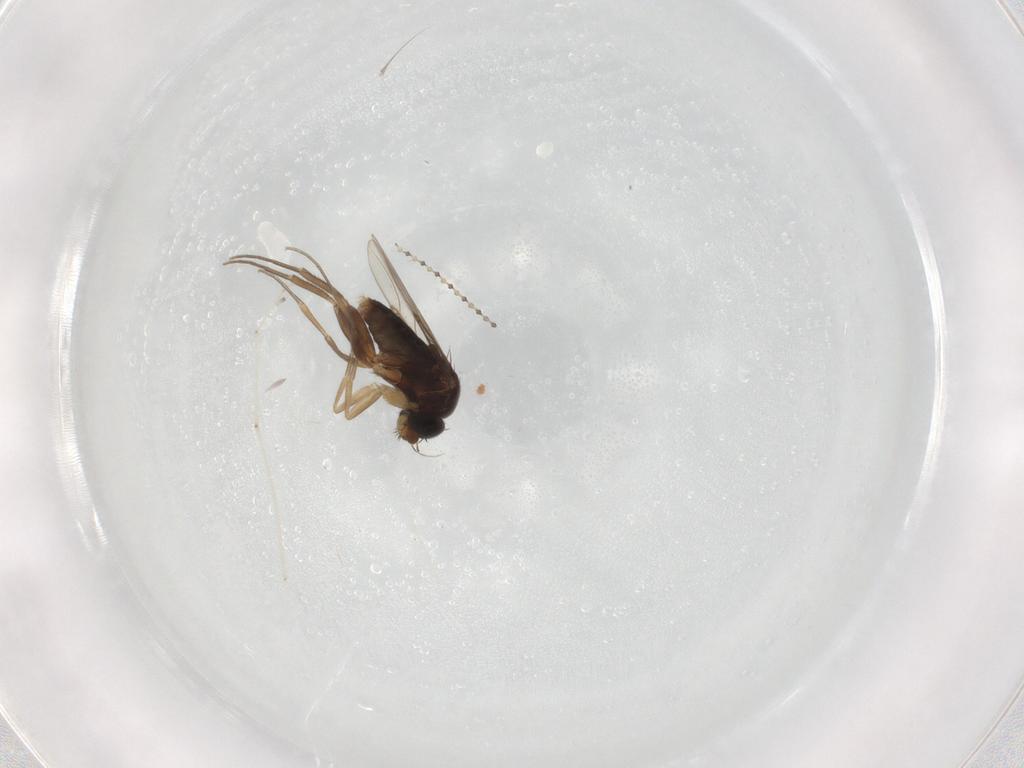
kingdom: Animalia
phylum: Arthropoda
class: Insecta
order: Diptera
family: Phoridae
